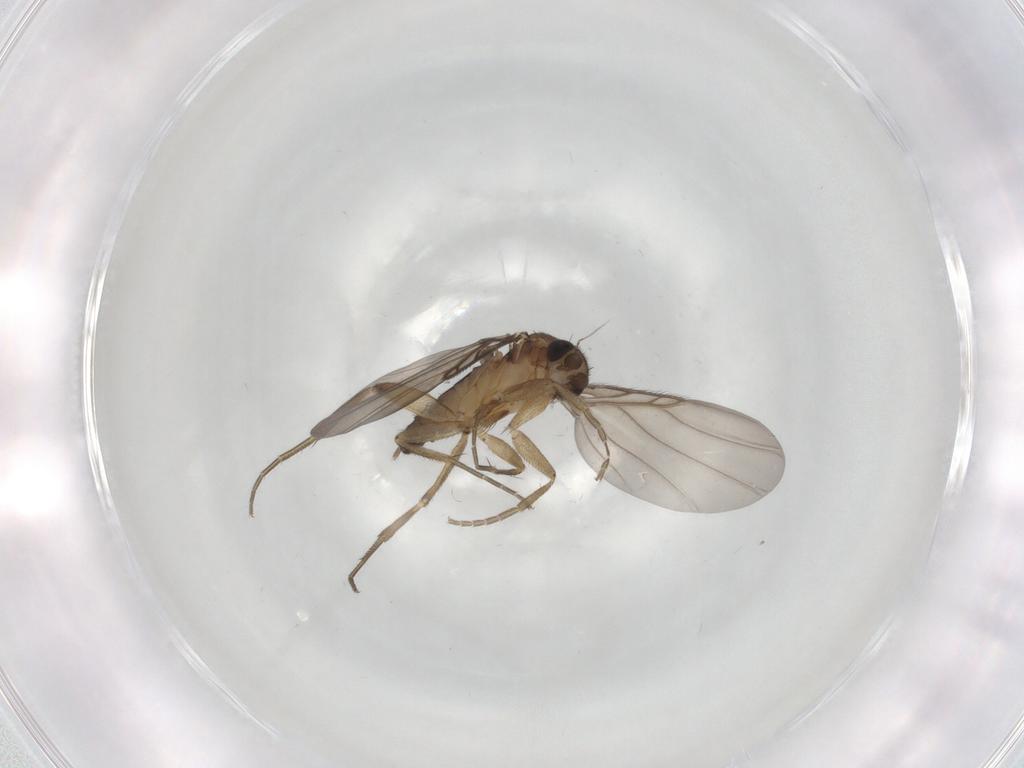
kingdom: Animalia
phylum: Arthropoda
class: Insecta
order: Diptera
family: Phoridae
